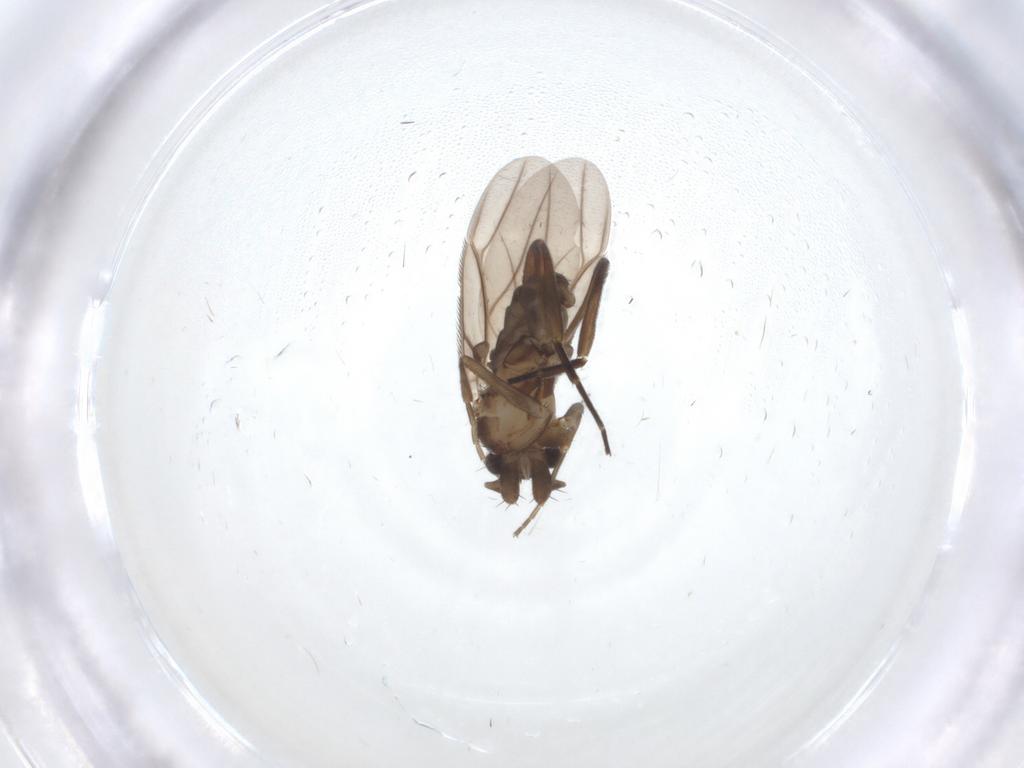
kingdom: Animalia
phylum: Arthropoda
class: Insecta
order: Diptera
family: Phoridae
